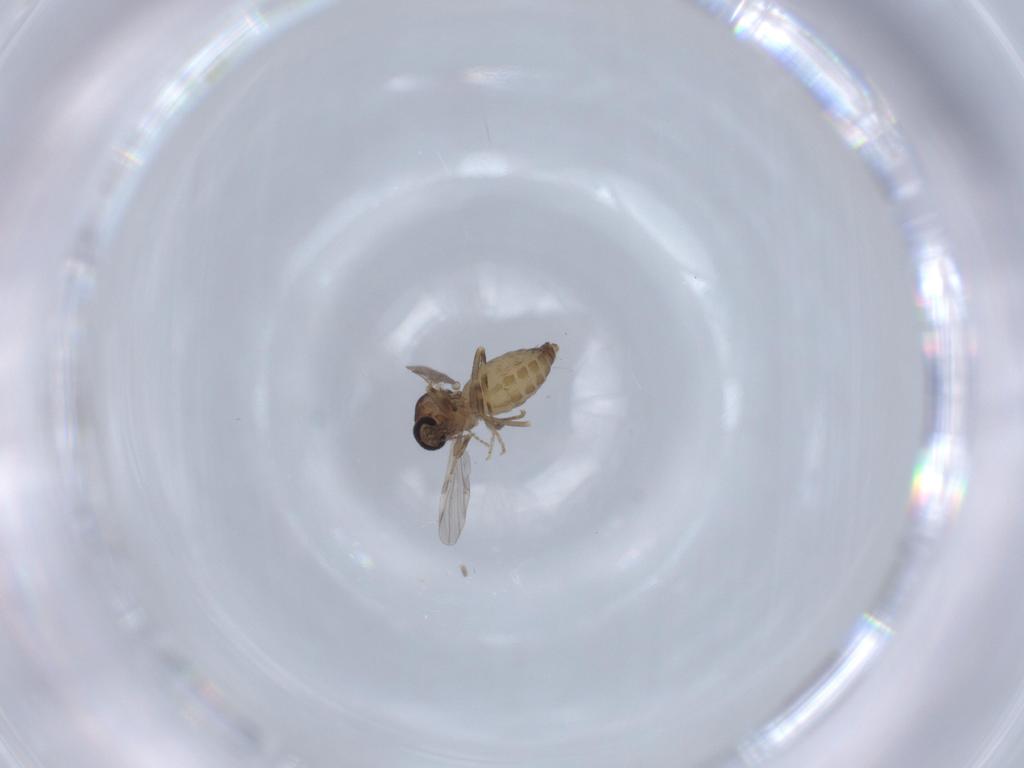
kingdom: Animalia
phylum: Arthropoda
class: Insecta
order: Diptera
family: Ceratopogonidae
